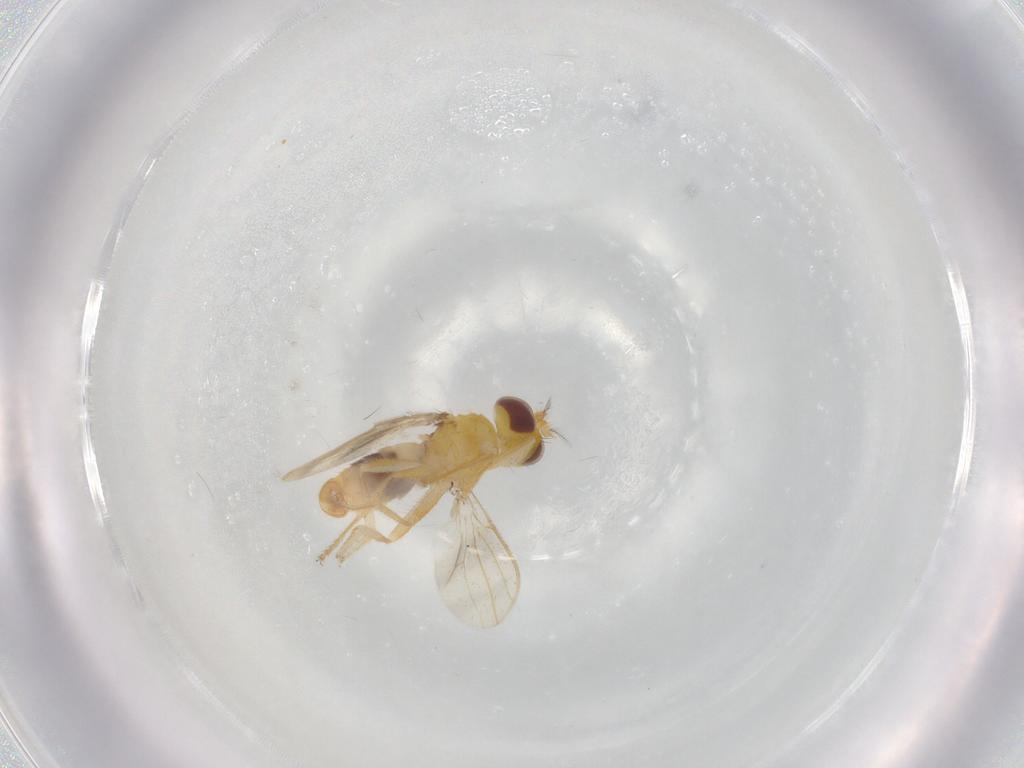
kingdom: Animalia
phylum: Arthropoda
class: Insecta
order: Diptera
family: Periscelididae
